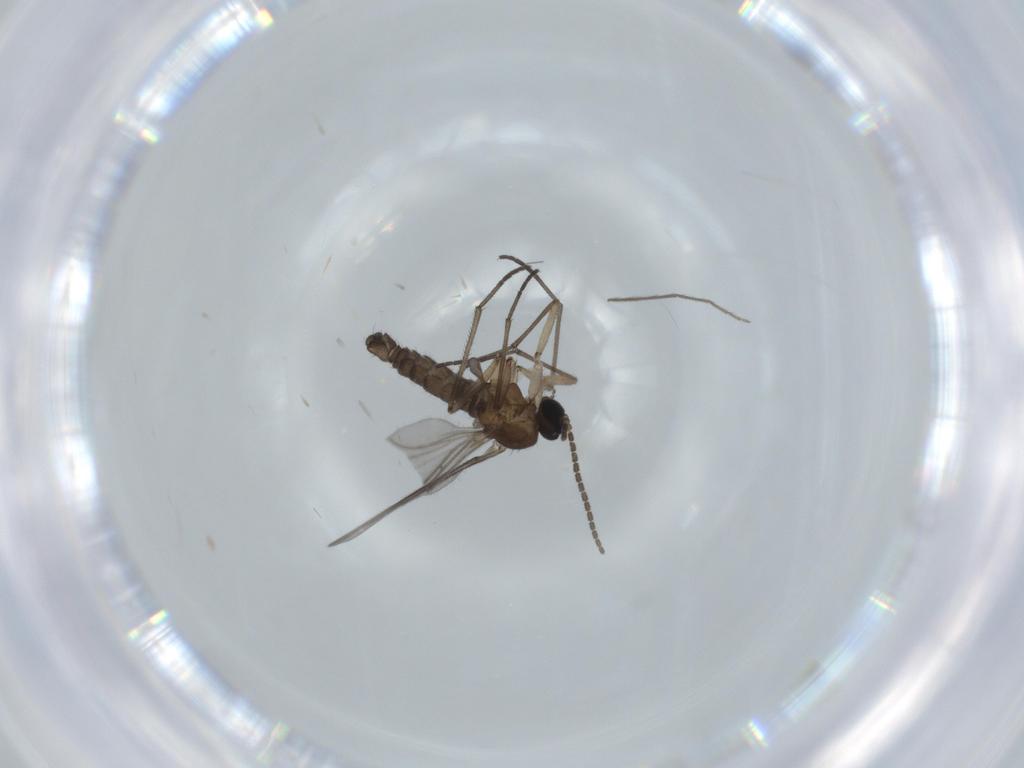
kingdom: Animalia
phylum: Arthropoda
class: Insecta
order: Diptera
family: Sciaridae
